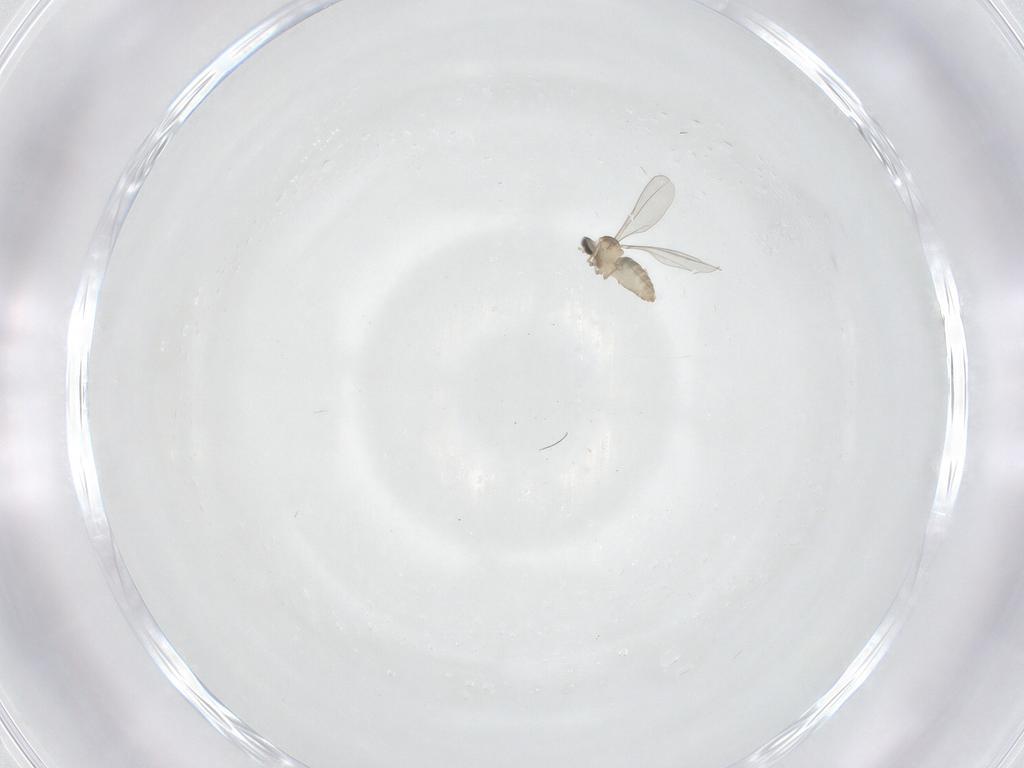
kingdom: Animalia
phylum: Arthropoda
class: Insecta
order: Diptera
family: Cecidomyiidae
